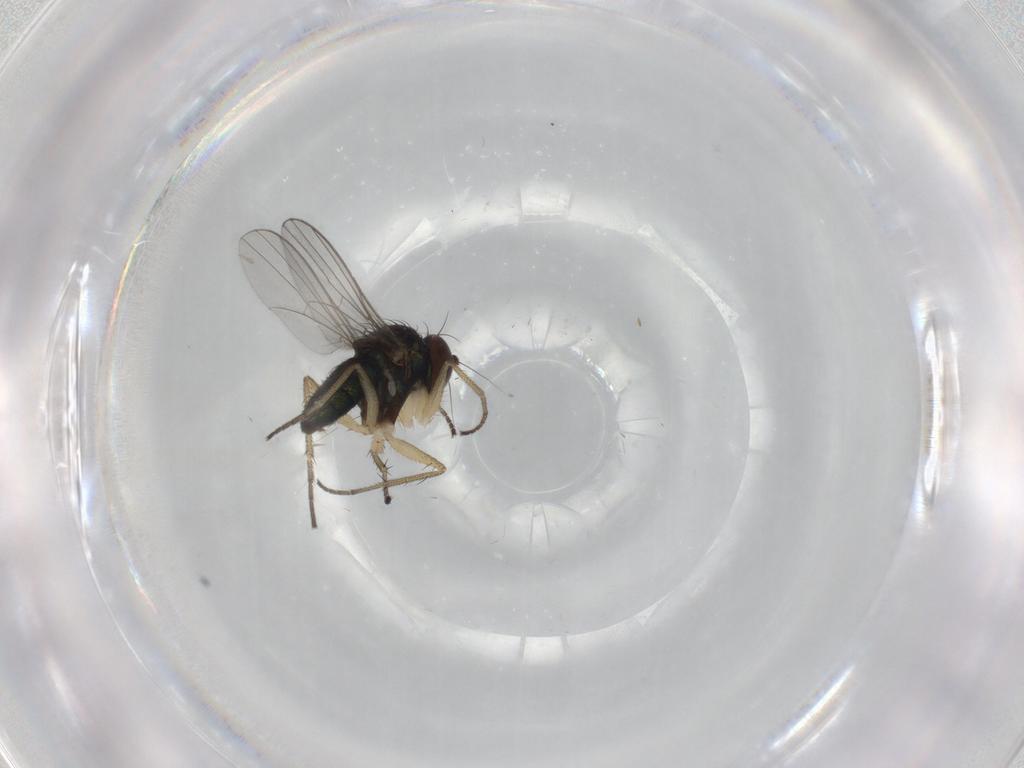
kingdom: Animalia
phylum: Arthropoda
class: Insecta
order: Diptera
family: Dolichopodidae
